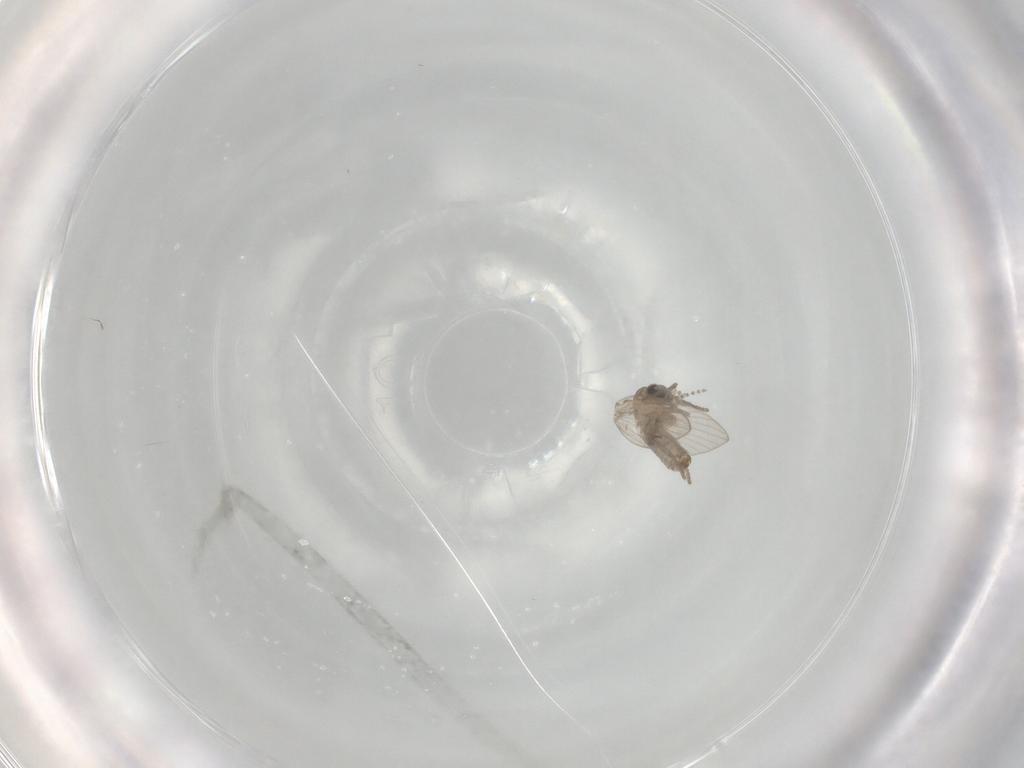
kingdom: Animalia
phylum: Arthropoda
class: Insecta
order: Diptera
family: Psychodidae
